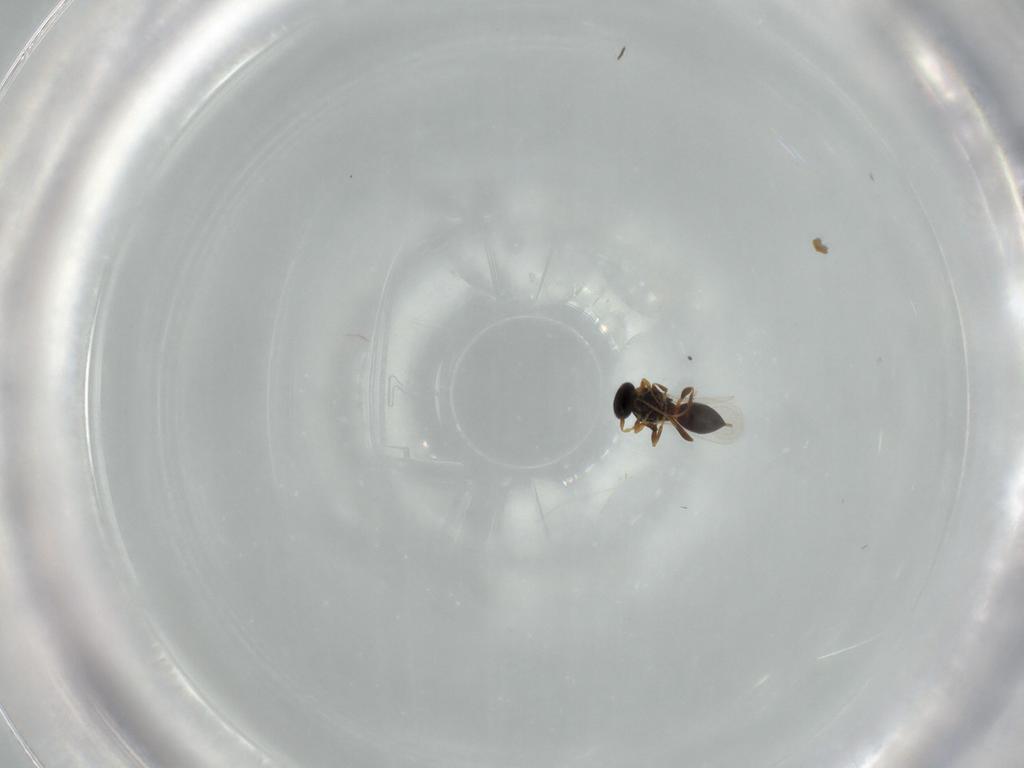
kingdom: Animalia
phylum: Arthropoda
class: Insecta
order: Hymenoptera
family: Platygastridae
